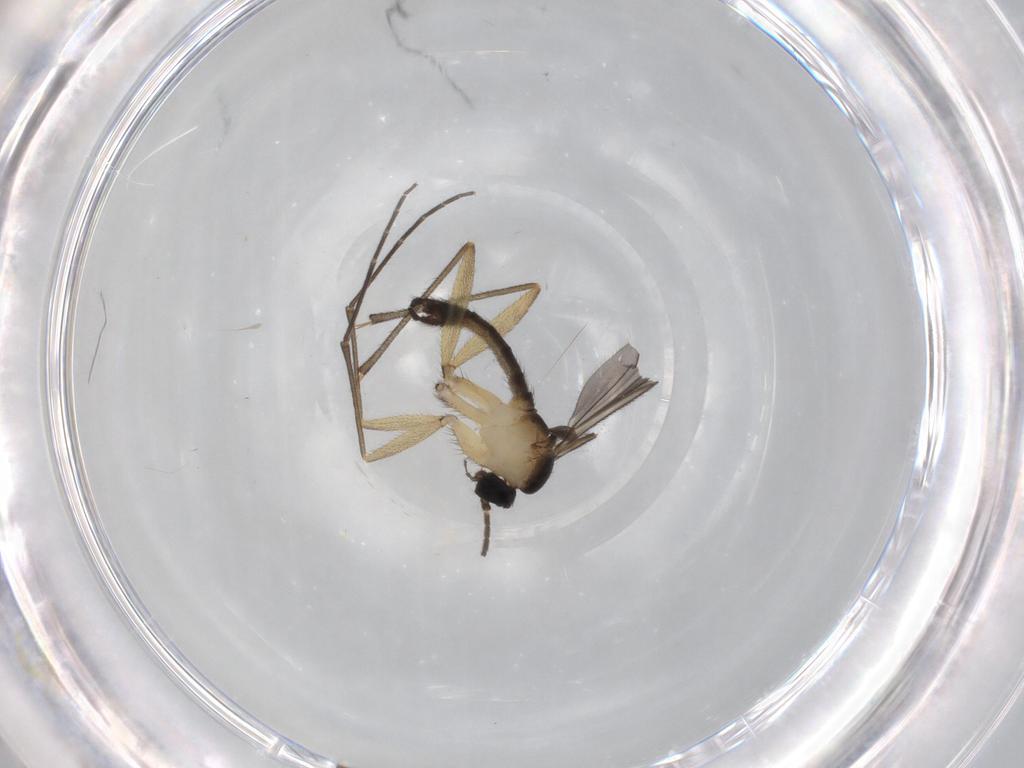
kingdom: Animalia
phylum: Arthropoda
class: Insecta
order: Diptera
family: Sciaridae
